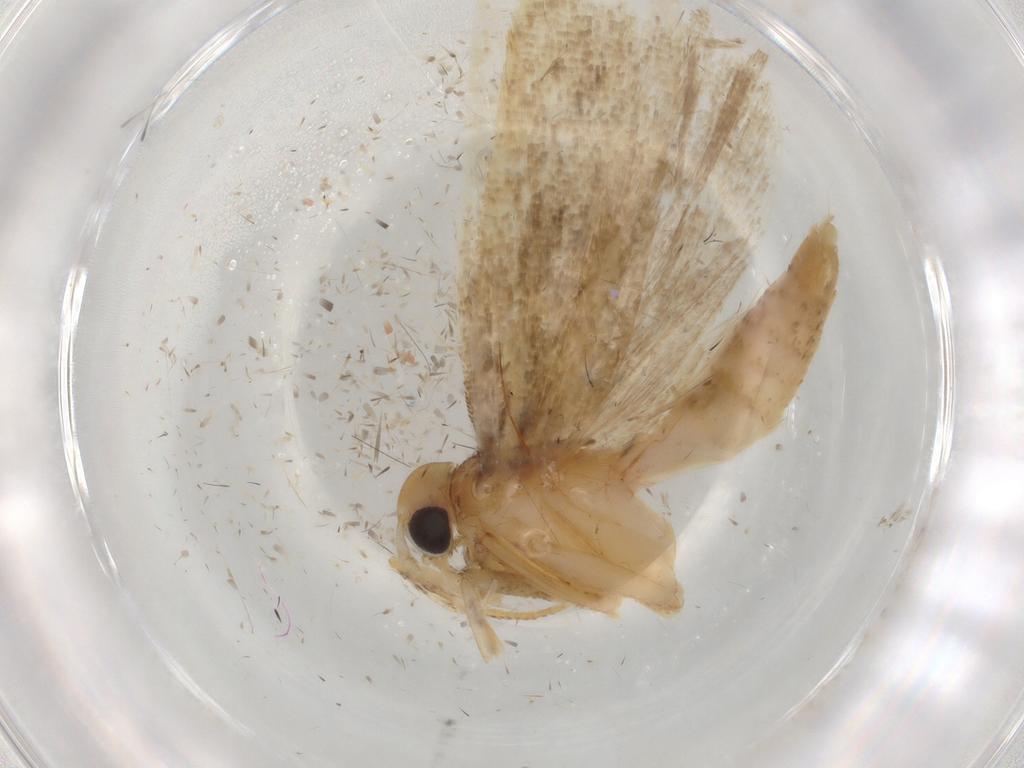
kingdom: Animalia
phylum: Arthropoda
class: Insecta
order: Lepidoptera
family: Gelechiidae
